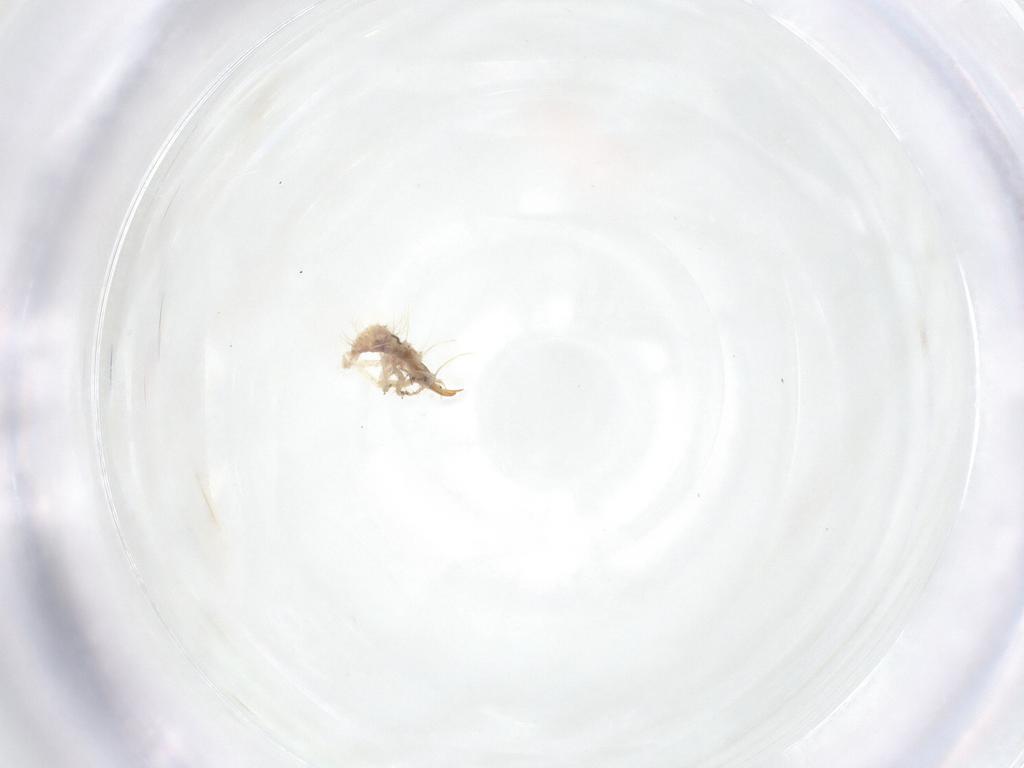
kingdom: Animalia
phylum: Arthropoda
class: Insecta
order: Neuroptera
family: Chrysopidae
